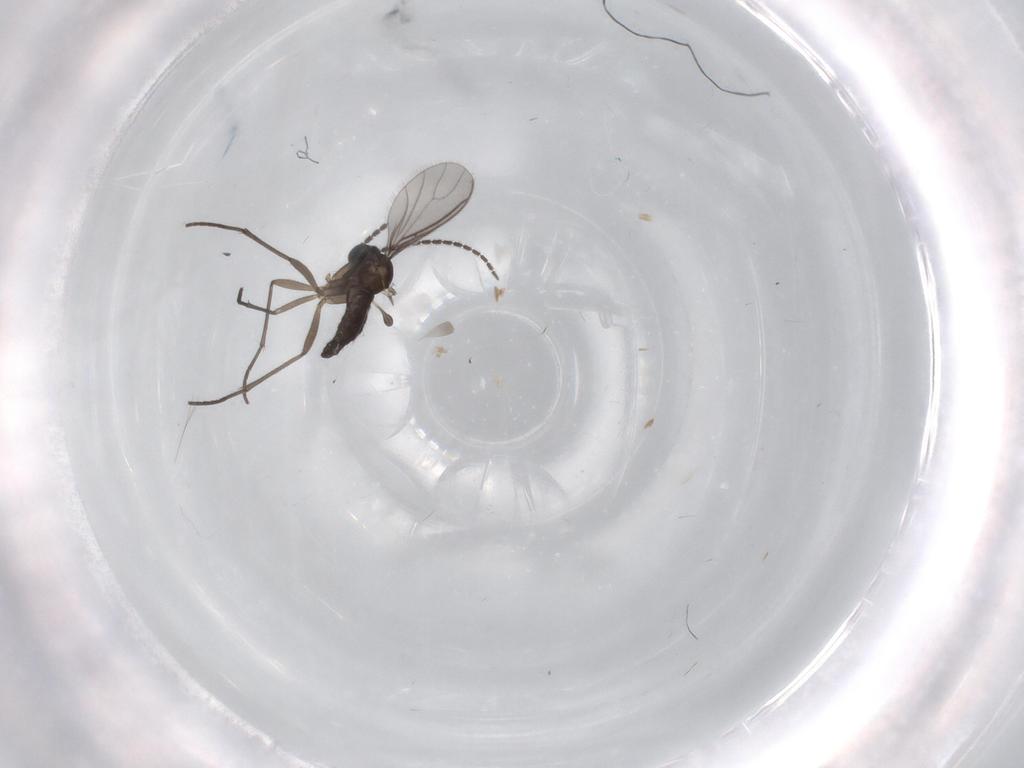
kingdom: Animalia
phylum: Arthropoda
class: Insecta
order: Diptera
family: Sciaridae
